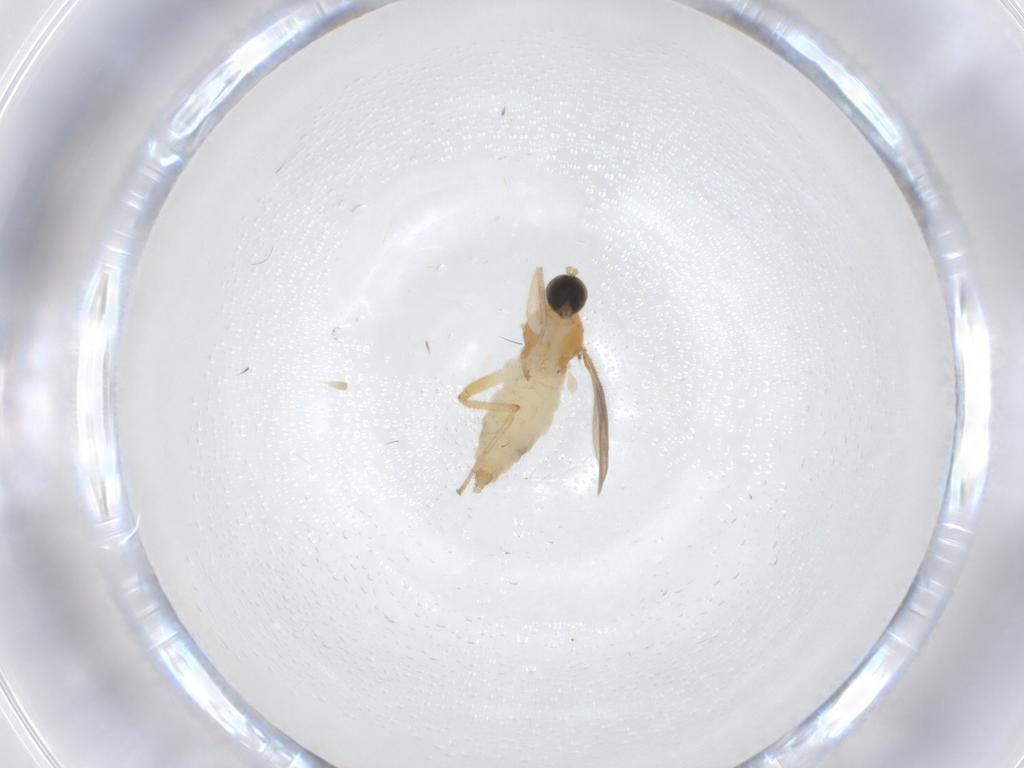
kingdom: Animalia
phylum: Arthropoda
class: Insecta
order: Diptera
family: Hybotidae
